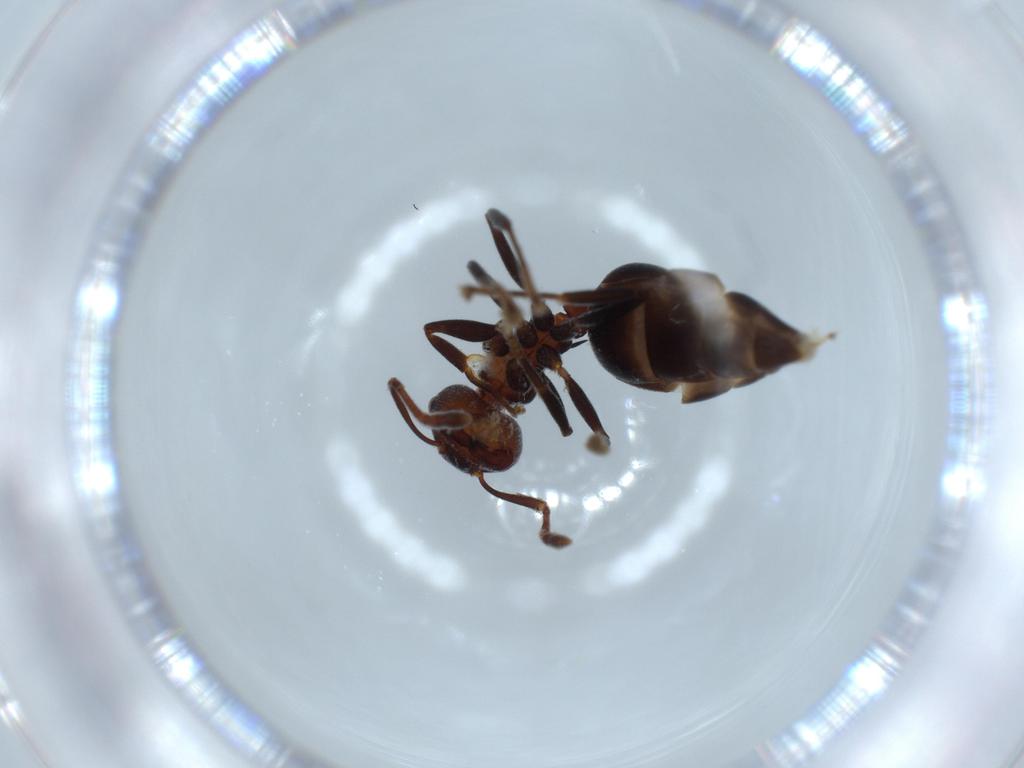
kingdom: Animalia
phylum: Arthropoda
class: Insecta
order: Hymenoptera
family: Formicidae
